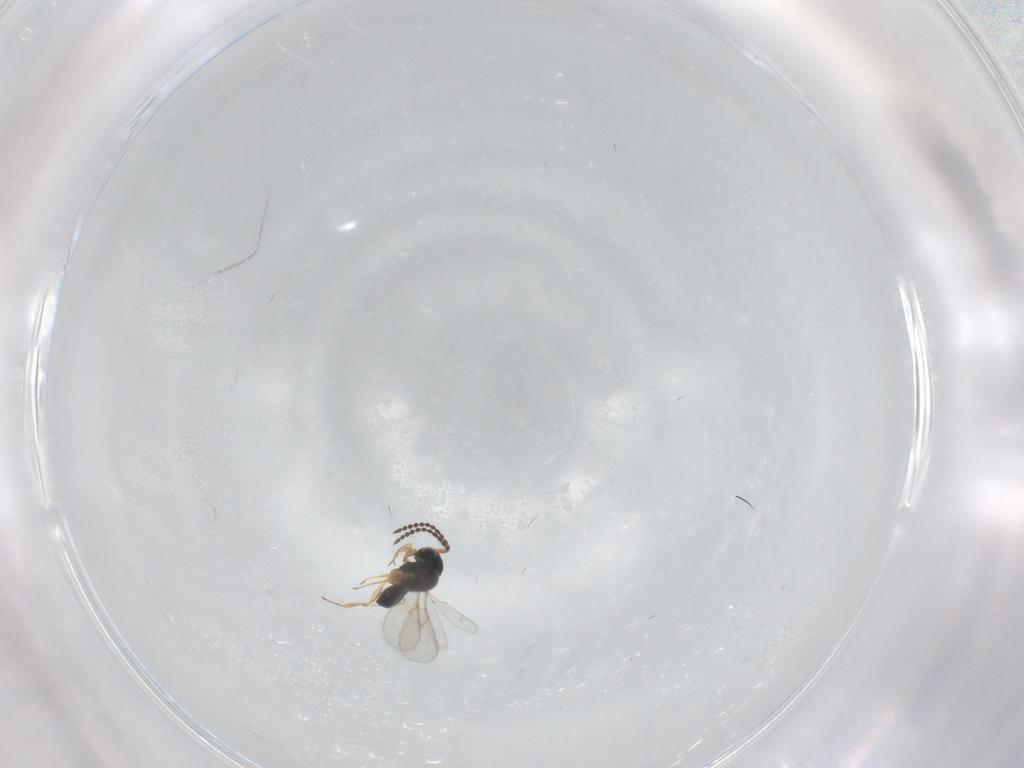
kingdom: Animalia
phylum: Arthropoda
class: Insecta
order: Hymenoptera
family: Scelionidae
